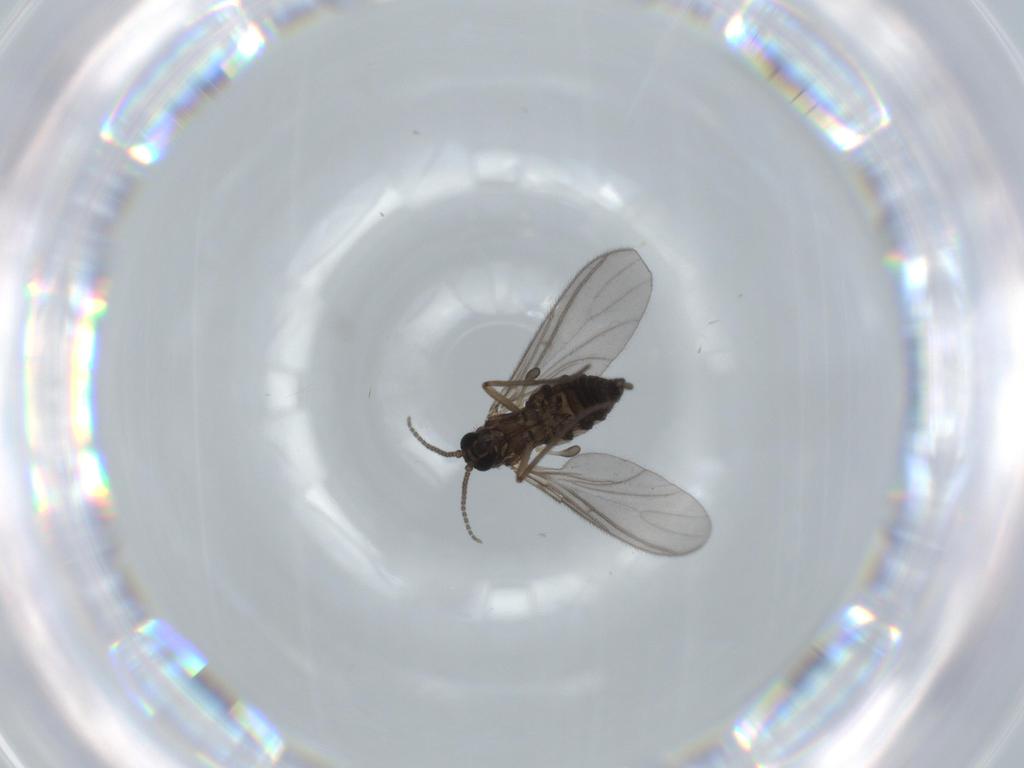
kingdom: Animalia
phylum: Arthropoda
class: Insecta
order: Diptera
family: Sciaridae
